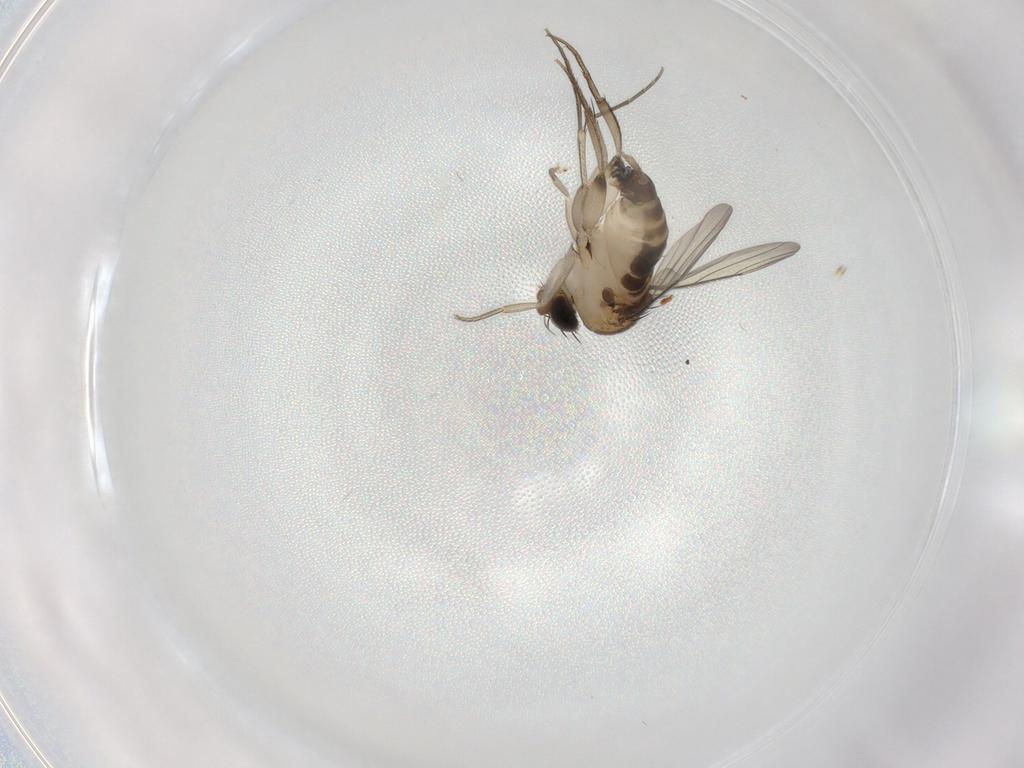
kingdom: Animalia
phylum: Arthropoda
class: Insecta
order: Diptera
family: Phoridae
